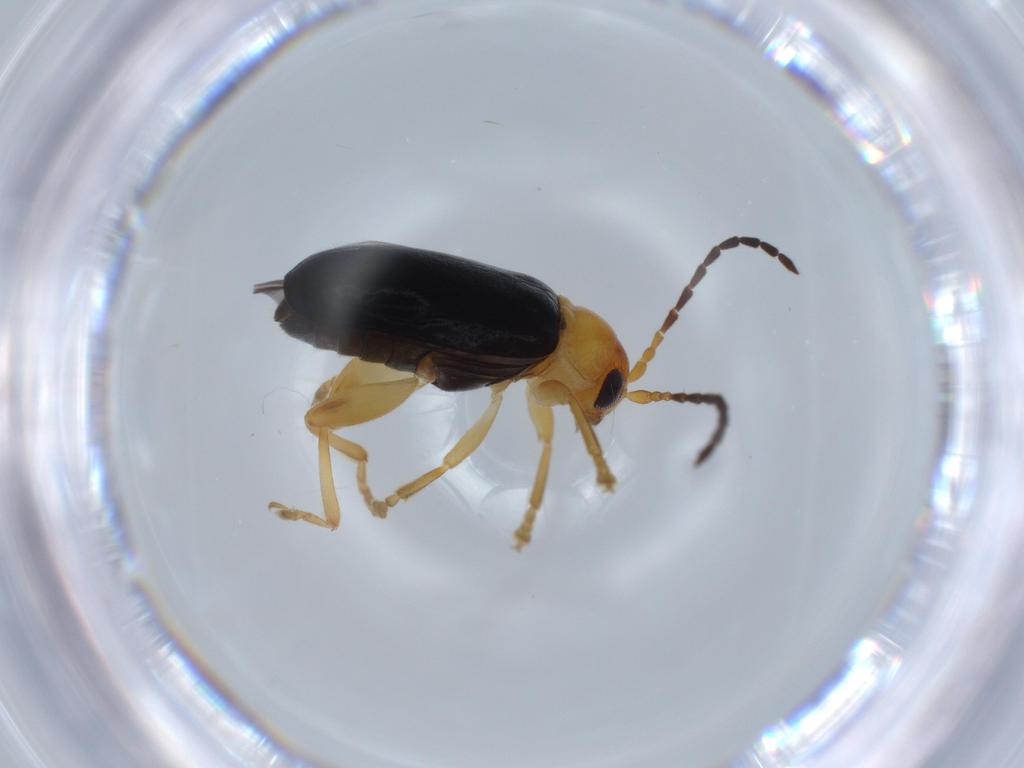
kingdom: Animalia
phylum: Arthropoda
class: Insecta
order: Coleoptera
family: Chrysomelidae
